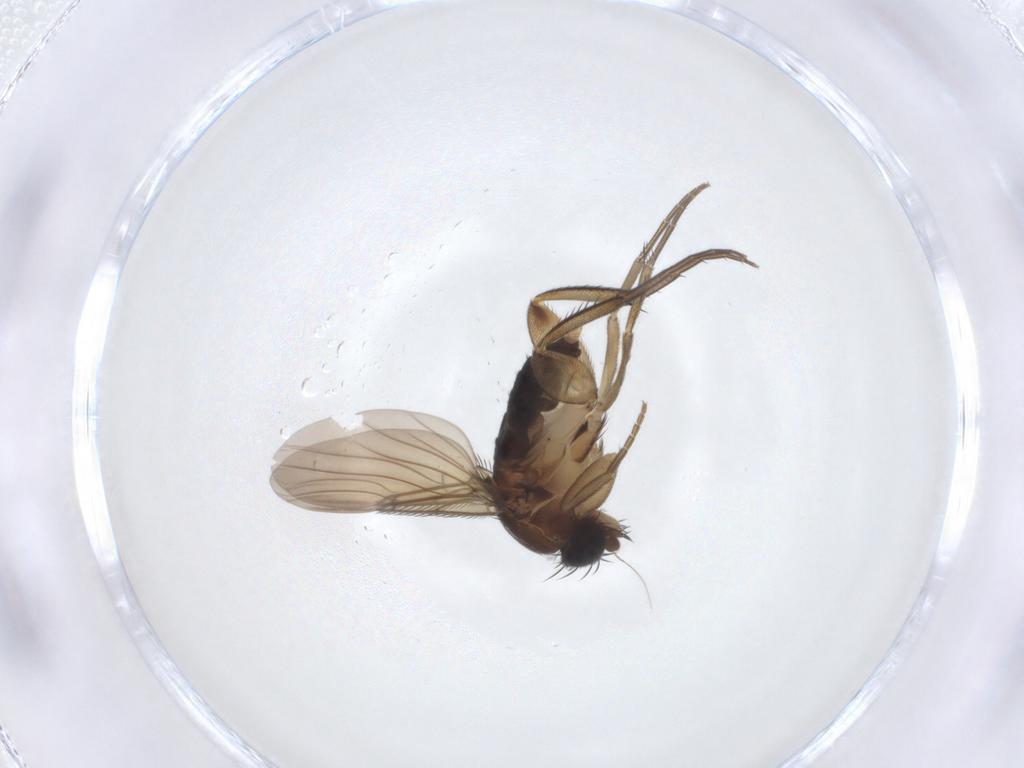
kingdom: Animalia
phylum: Arthropoda
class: Insecta
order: Diptera
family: Phoridae
